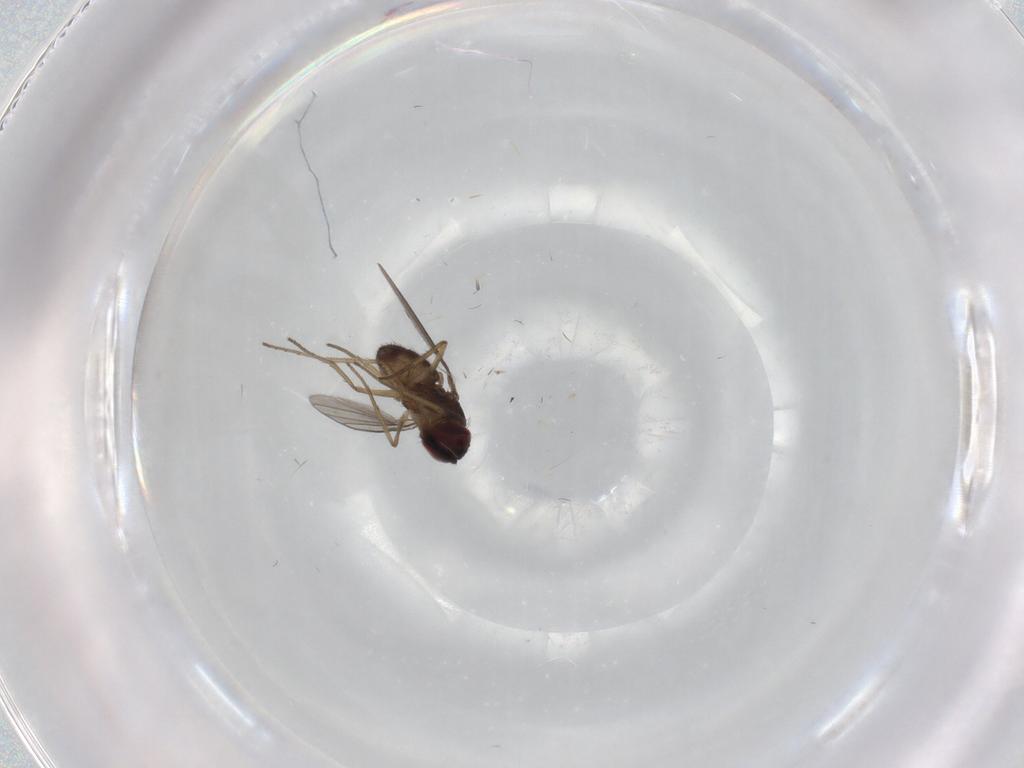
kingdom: Animalia
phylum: Arthropoda
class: Insecta
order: Diptera
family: Dolichopodidae
